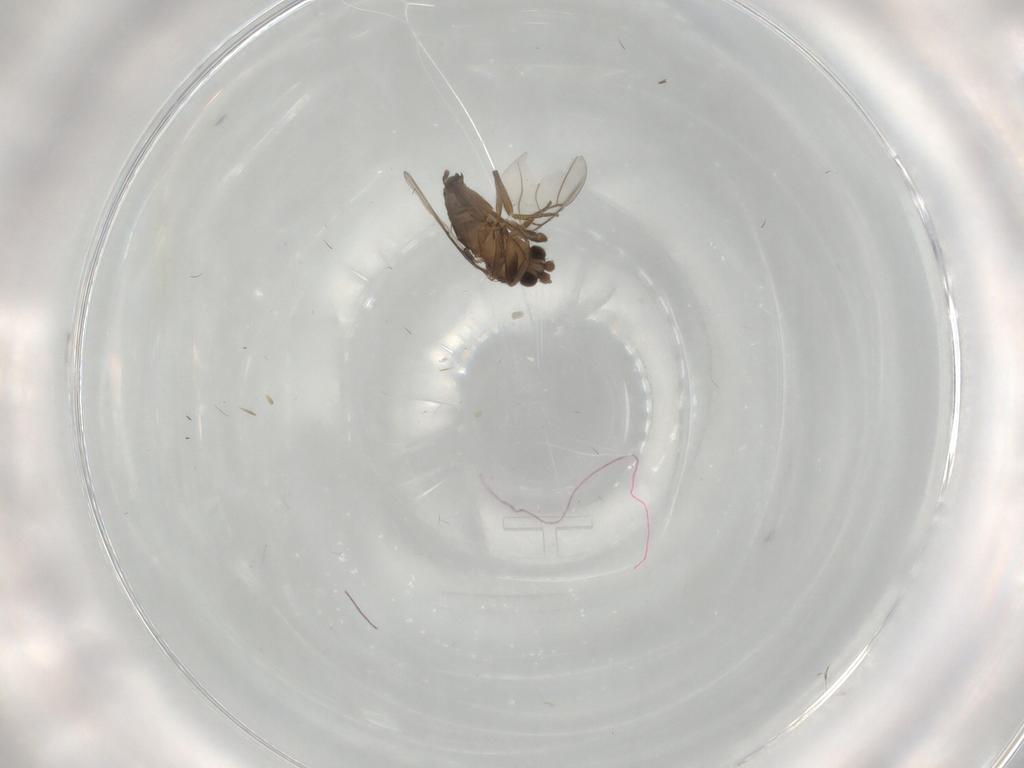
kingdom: Animalia
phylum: Arthropoda
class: Insecta
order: Diptera
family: Phoridae
